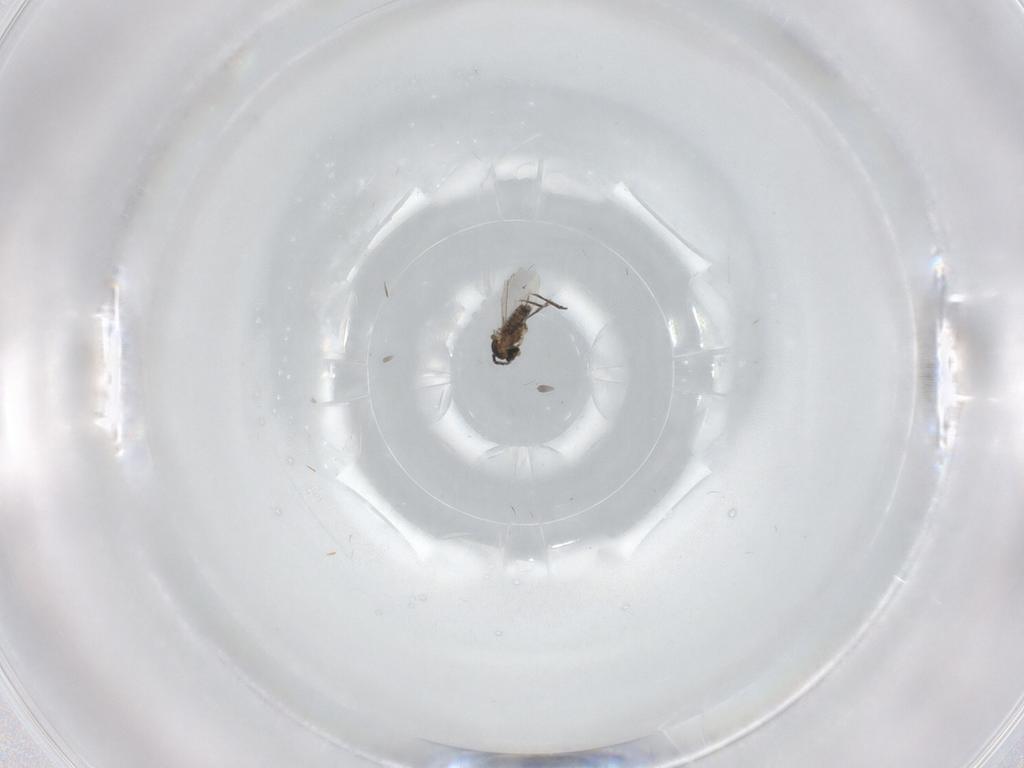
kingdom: Animalia
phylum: Arthropoda
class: Insecta
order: Diptera
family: Cecidomyiidae
